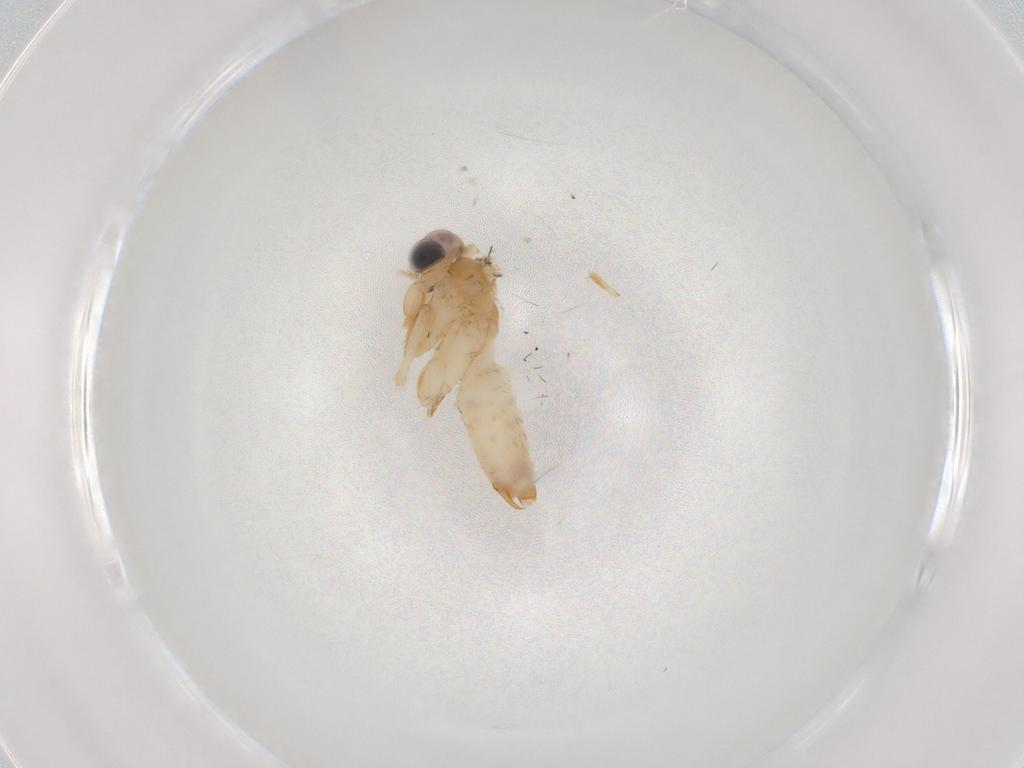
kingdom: Animalia
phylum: Arthropoda
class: Insecta
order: Lepidoptera
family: Nepticulidae
